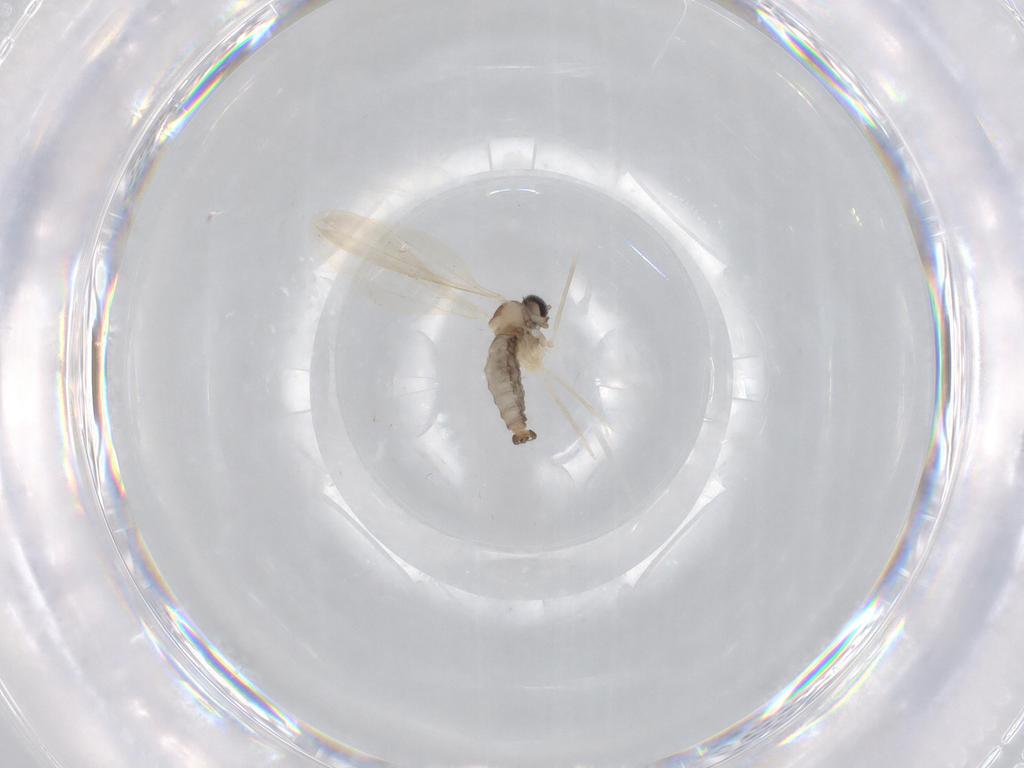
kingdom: Animalia
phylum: Arthropoda
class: Insecta
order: Diptera
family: Cecidomyiidae
